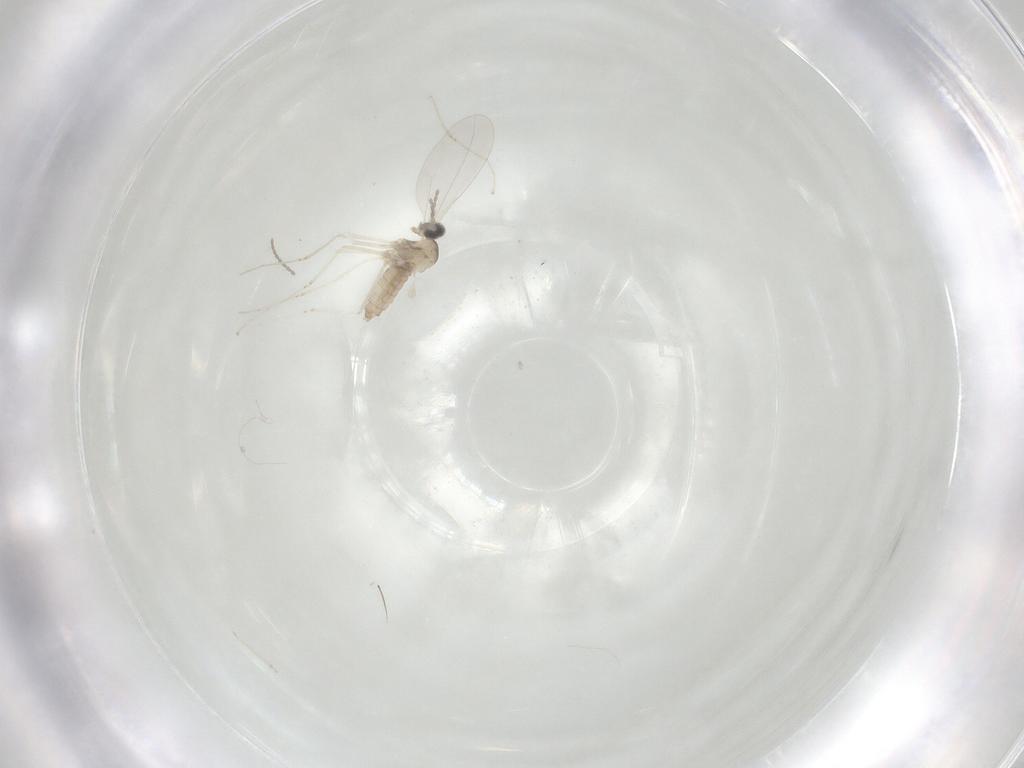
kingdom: Animalia
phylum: Arthropoda
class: Insecta
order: Diptera
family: Cecidomyiidae
